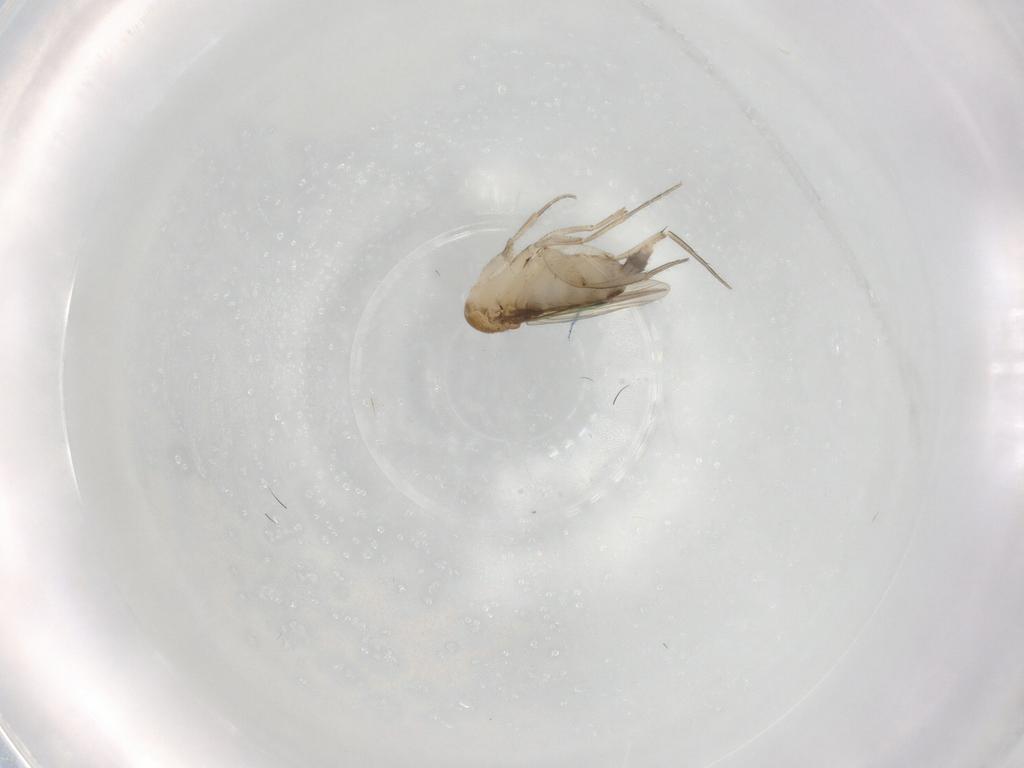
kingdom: Animalia
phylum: Arthropoda
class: Insecta
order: Diptera
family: Phoridae
